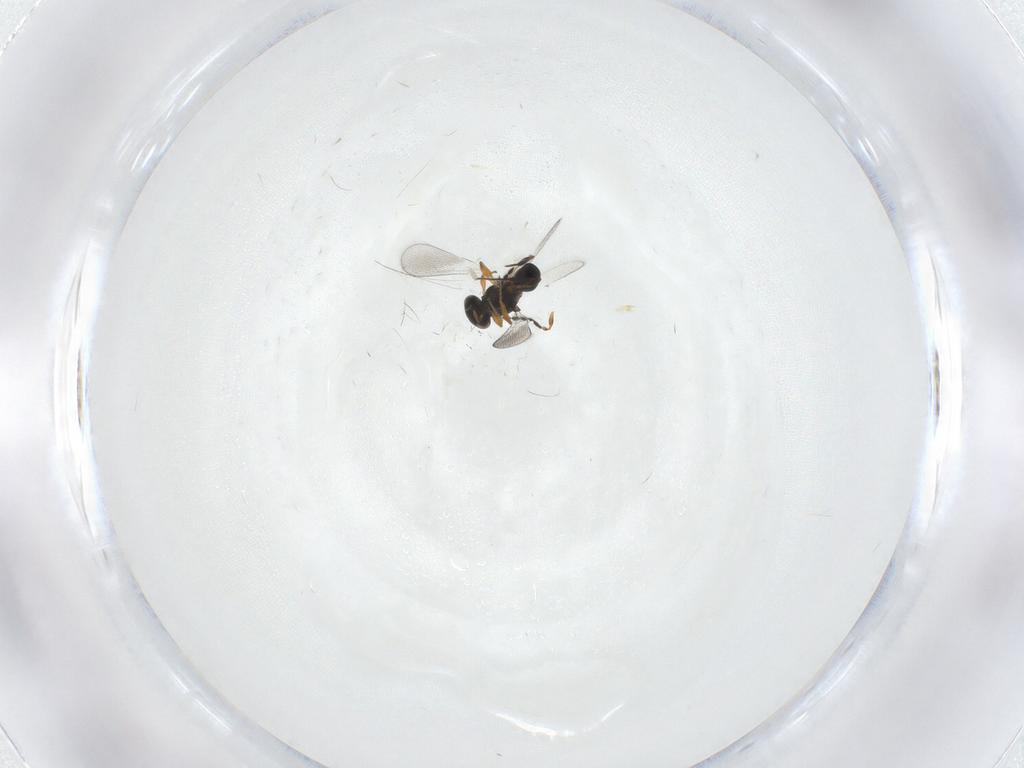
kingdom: Animalia
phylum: Arthropoda
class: Insecta
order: Hymenoptera
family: Platygastridae
